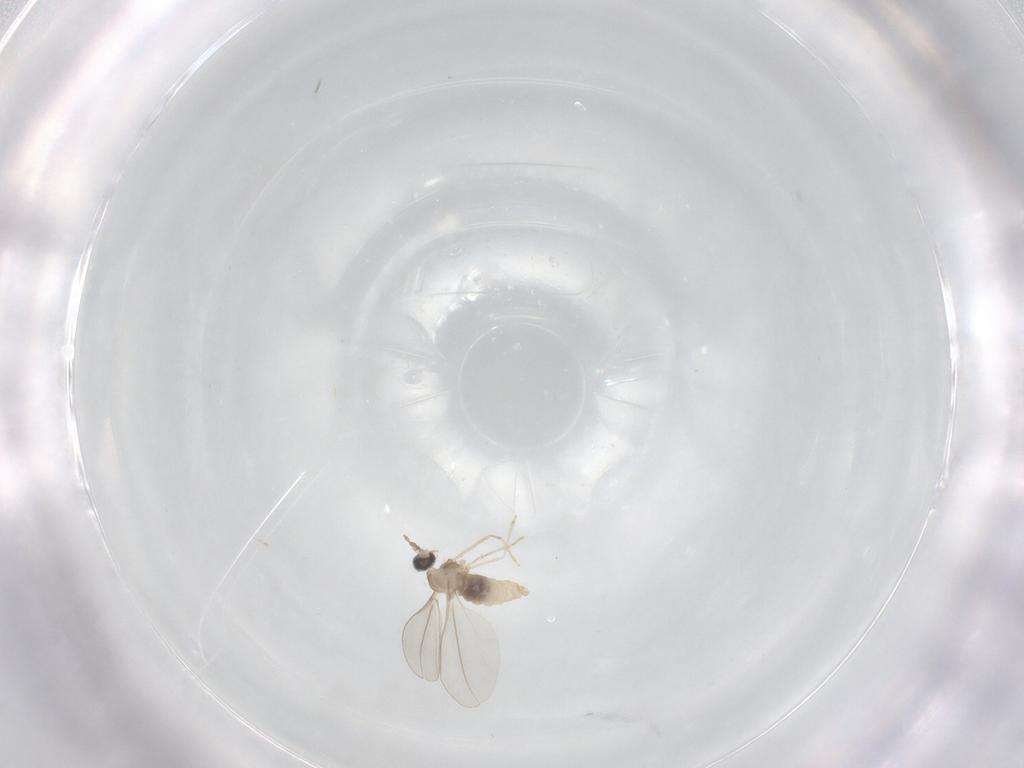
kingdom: Animalia
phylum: Arthropoda
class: Insecta
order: Diptera
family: Cecidomyiidae
